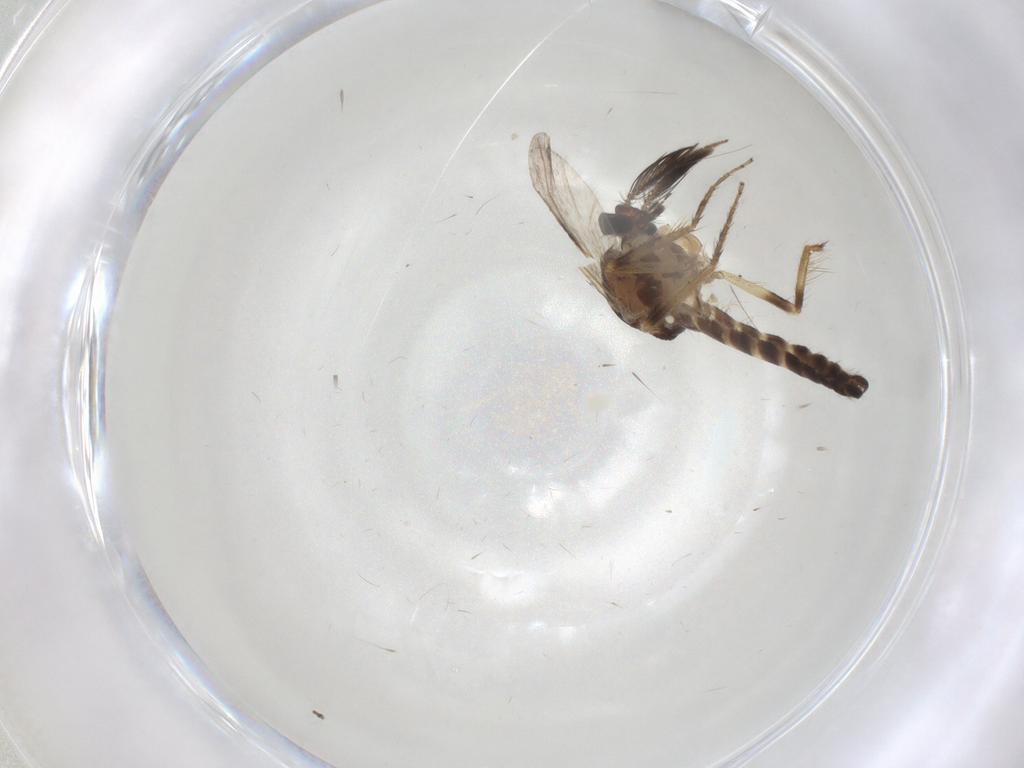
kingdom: Animalia
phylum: Arthropoda
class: Insecta
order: Diptera
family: Ceratopogonidae
